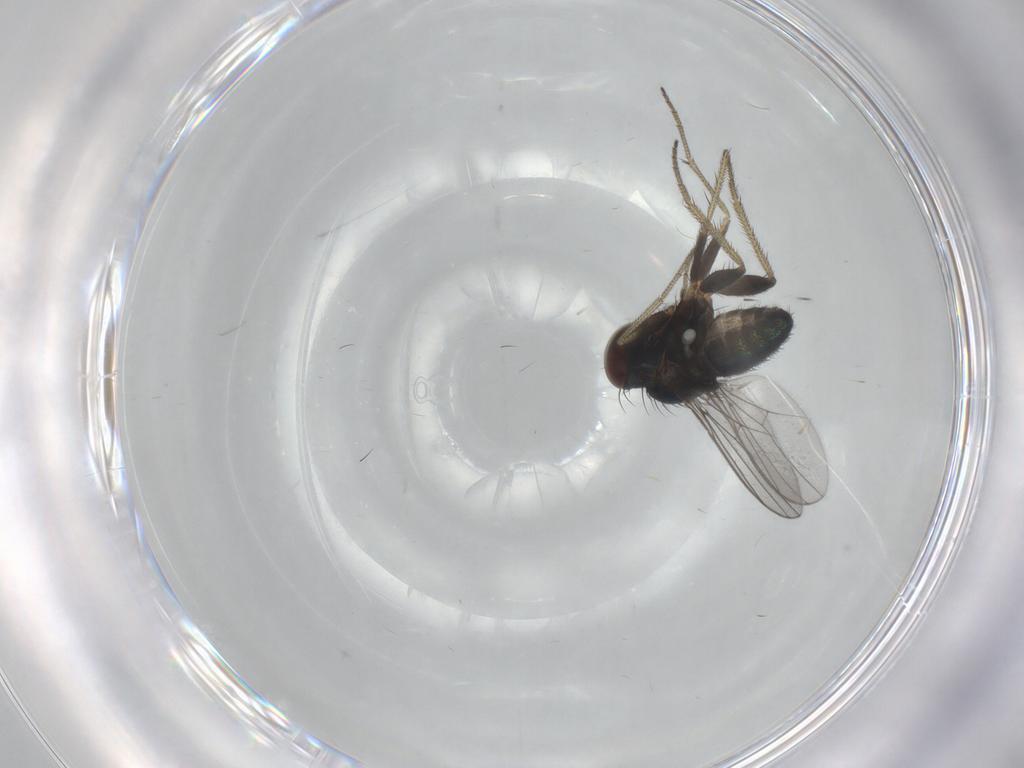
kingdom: Animalia
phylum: Arthropoda
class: Insecta
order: Diptera
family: Dolichopodidae
